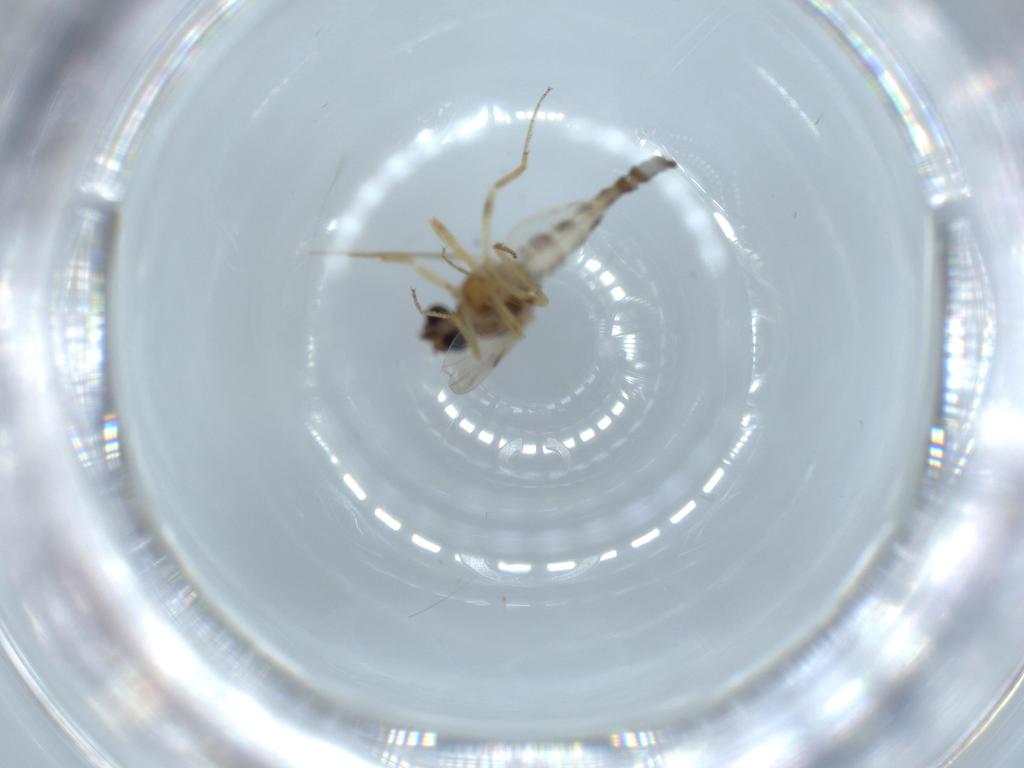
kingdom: Animalia
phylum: Arthropoda
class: Insecta
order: Diptera
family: Ceratopogonidae
